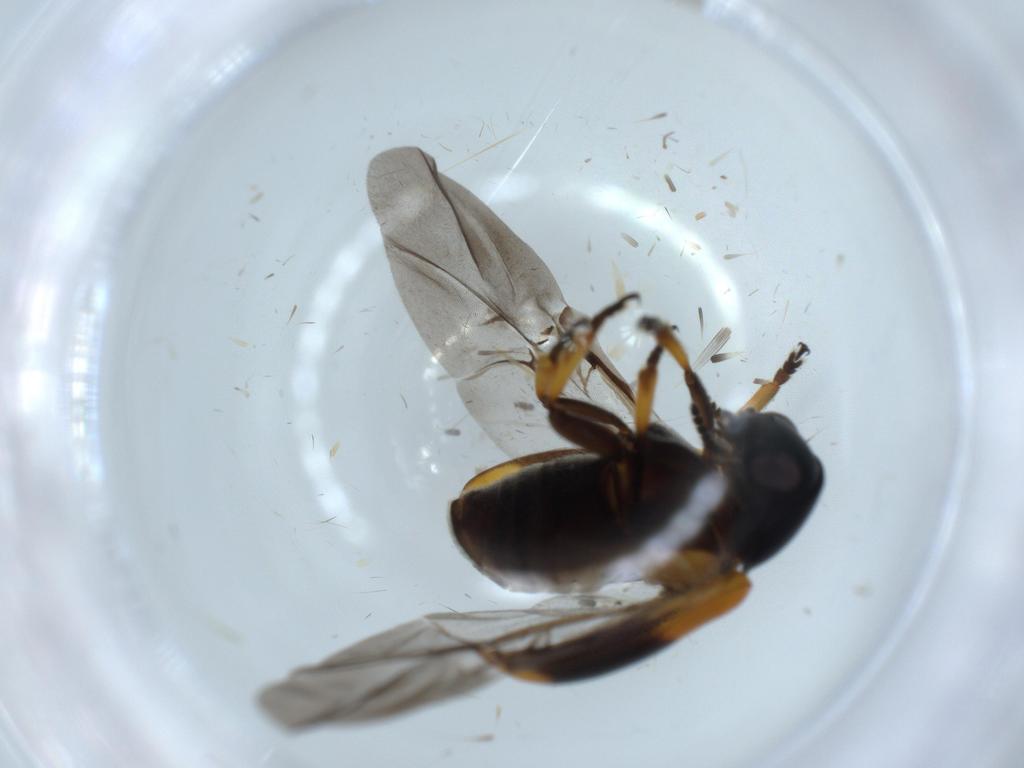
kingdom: Animalia
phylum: Arthropoda
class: Insecta
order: Coleoptera
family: Chrysomelidae
